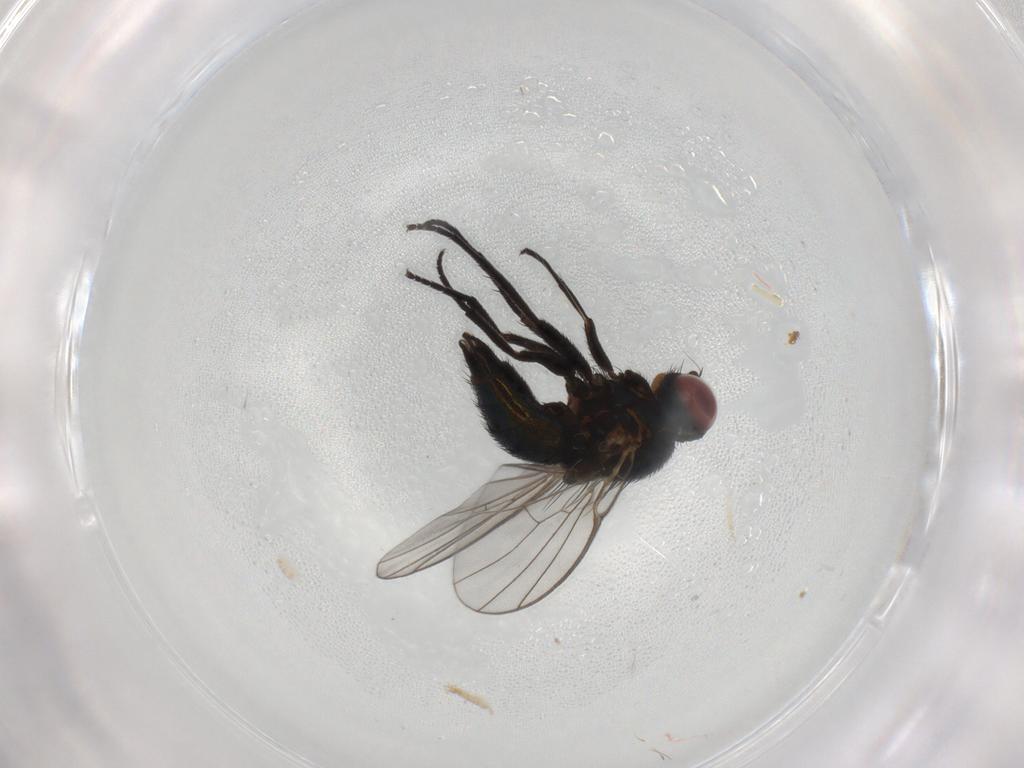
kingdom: Animalia
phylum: Arthropoda
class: Insecta
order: Diptera
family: Agromyzidae
